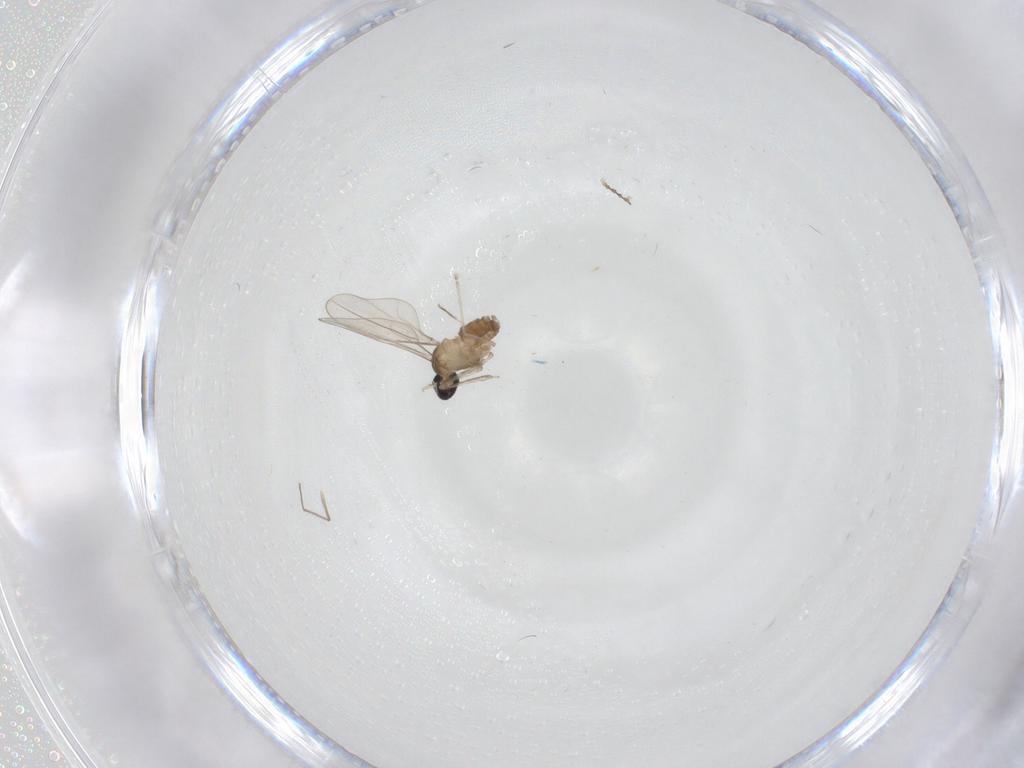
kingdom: Animalia
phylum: Arthropoda
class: Insecta
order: Diptera
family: Cecidomyiidae
